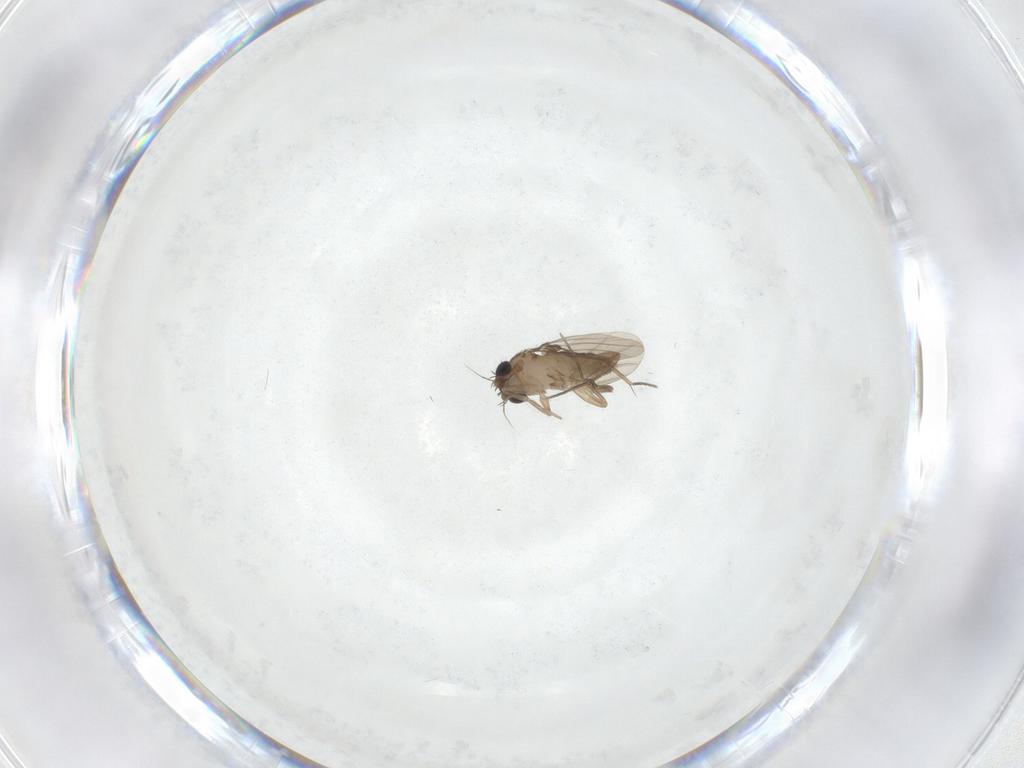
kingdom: Animalia
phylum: Arthropoda
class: Insecta
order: Diptera
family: Phoridae
